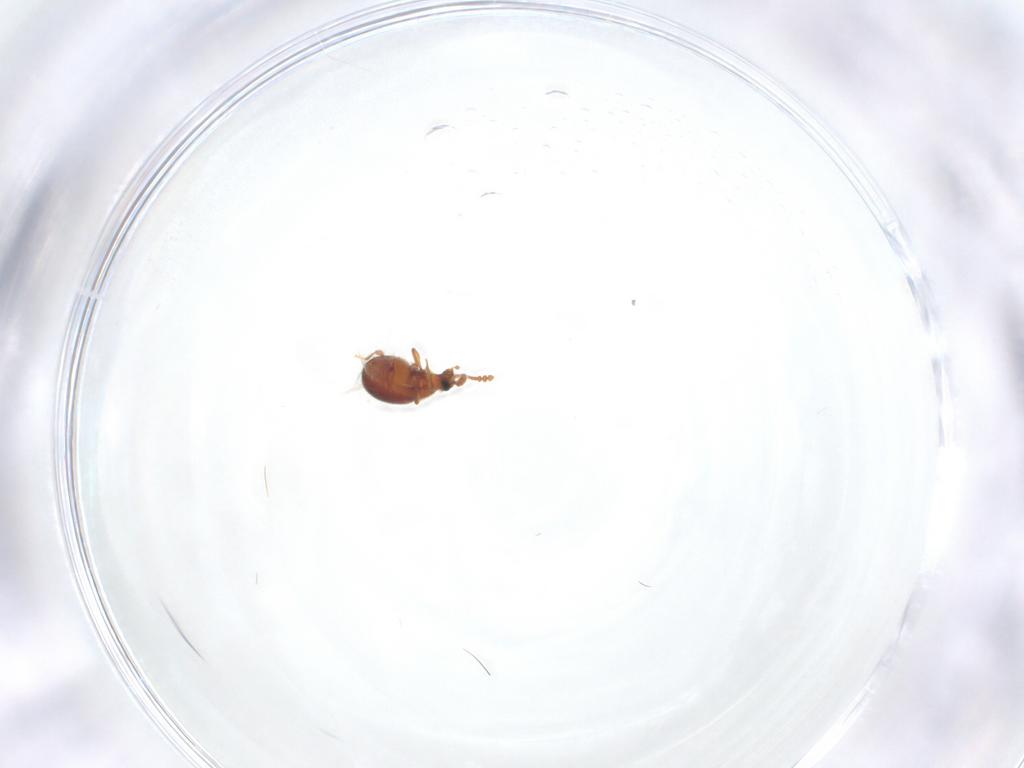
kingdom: Animalia
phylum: Arthropoda
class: Insecta
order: Coleoptera
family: Staphylinidae
